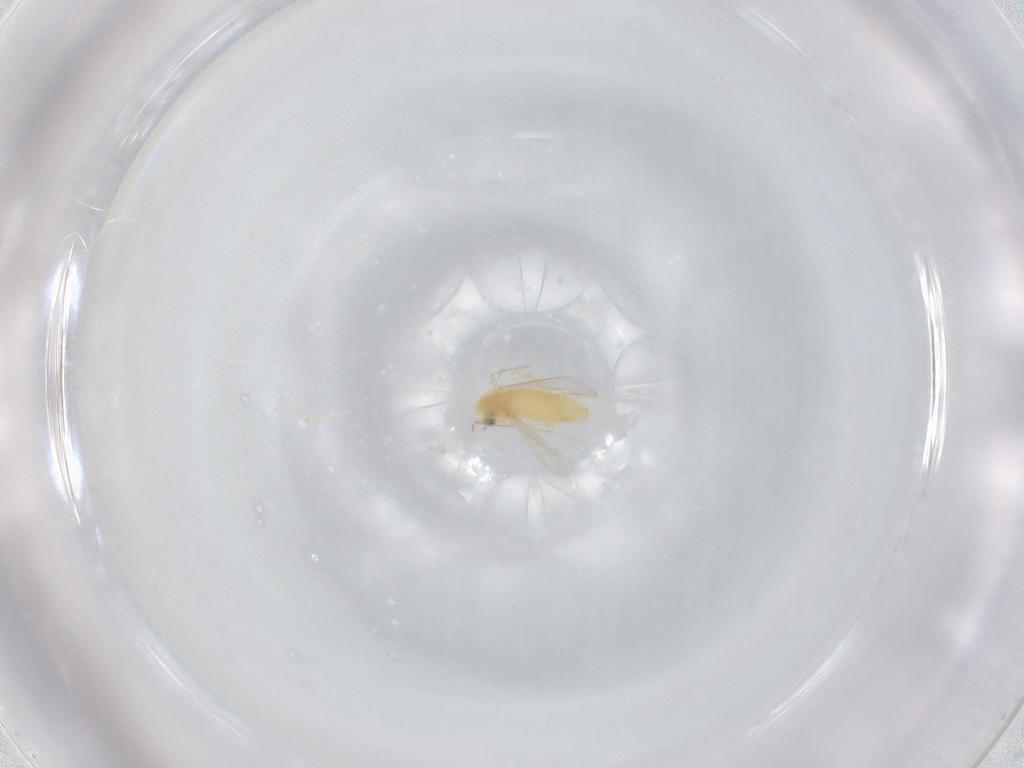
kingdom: Animalia
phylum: Arthropoda
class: Insecta
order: Diptera
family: Chironomidae
